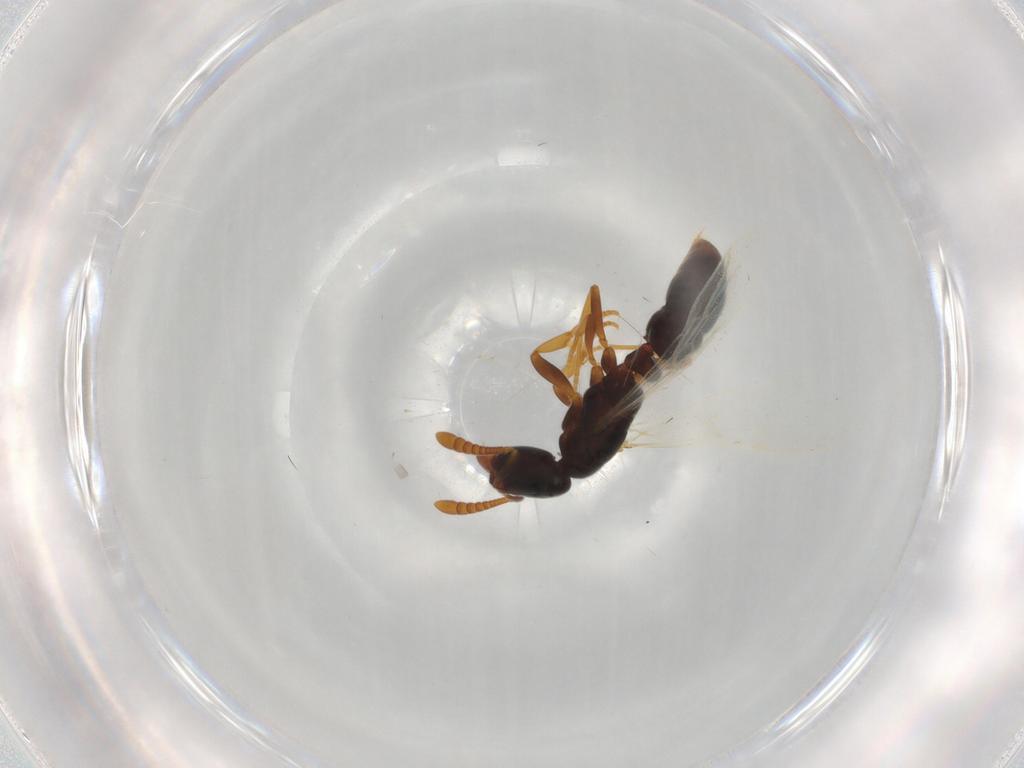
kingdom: Animalia
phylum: Arthropoda
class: Insecta
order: Hymenoptera
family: Formicidae
